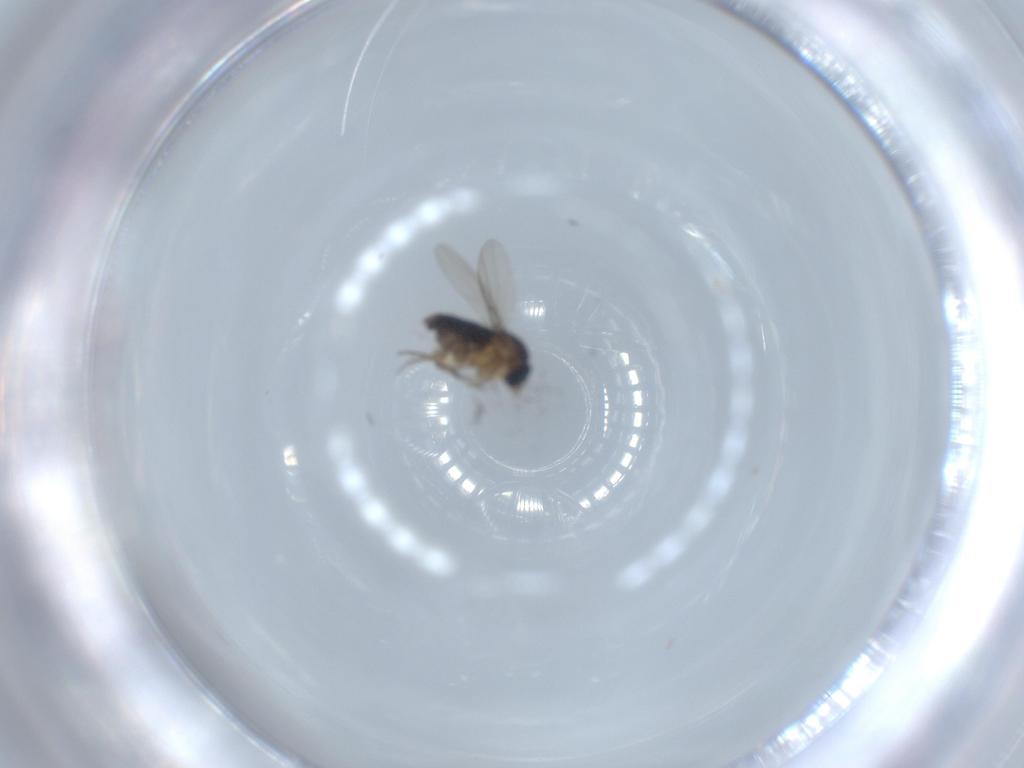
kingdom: Animalia
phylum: Arthropoda
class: Insecta
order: Diptera
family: Phoridae
